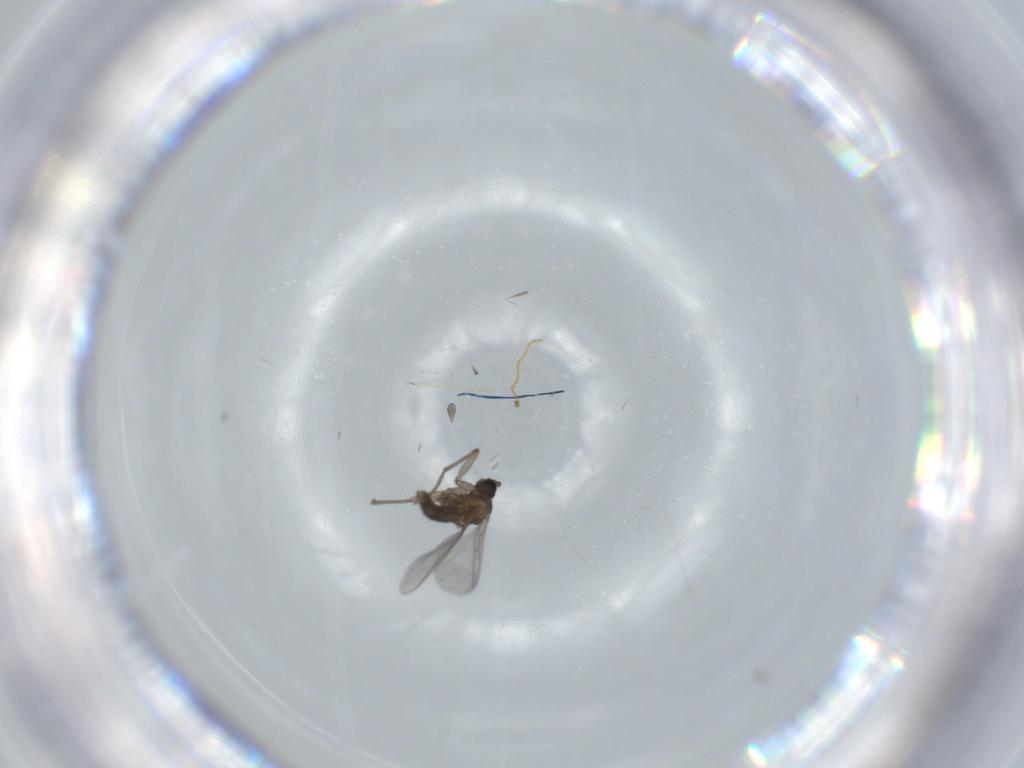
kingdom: Animalia
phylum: Arthropoda
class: Insecta
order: Diptera
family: Sciaridae
